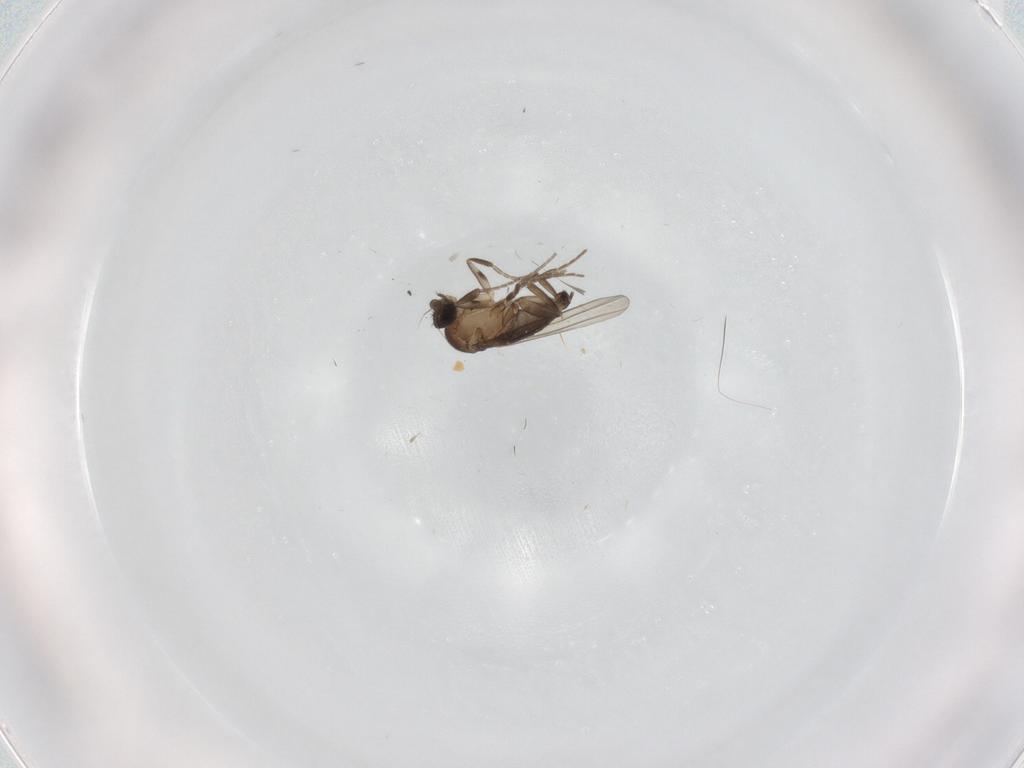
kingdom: Animalia
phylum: Arthropoda
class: Insecta
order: Diptera
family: Phoridae
